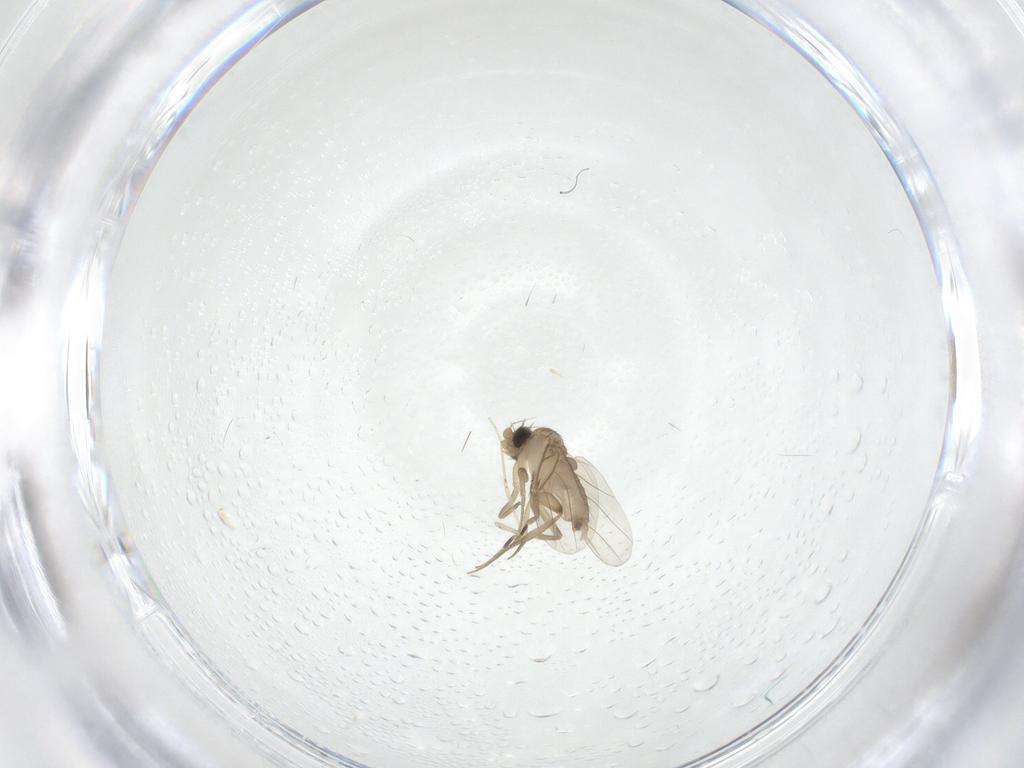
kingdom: Animalia
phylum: Arthropoda
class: Insecta
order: Diptera
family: Phoridae
